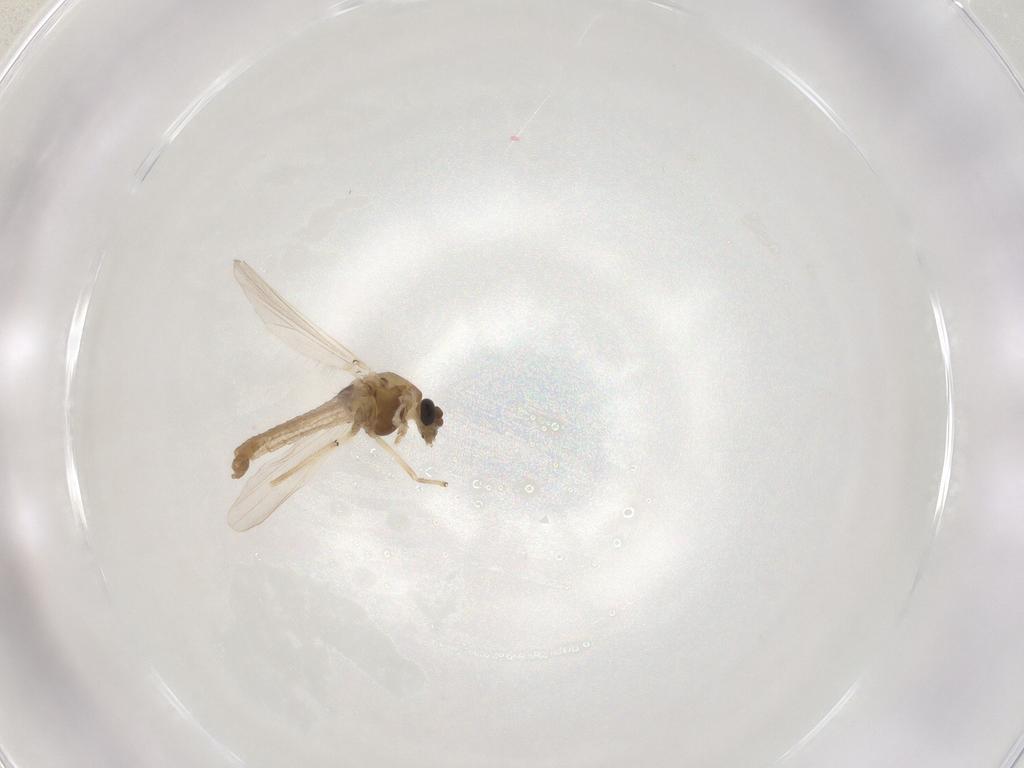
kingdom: Animalia
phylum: Arthropoda
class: Insecta
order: Diptera
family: Chironomidae
